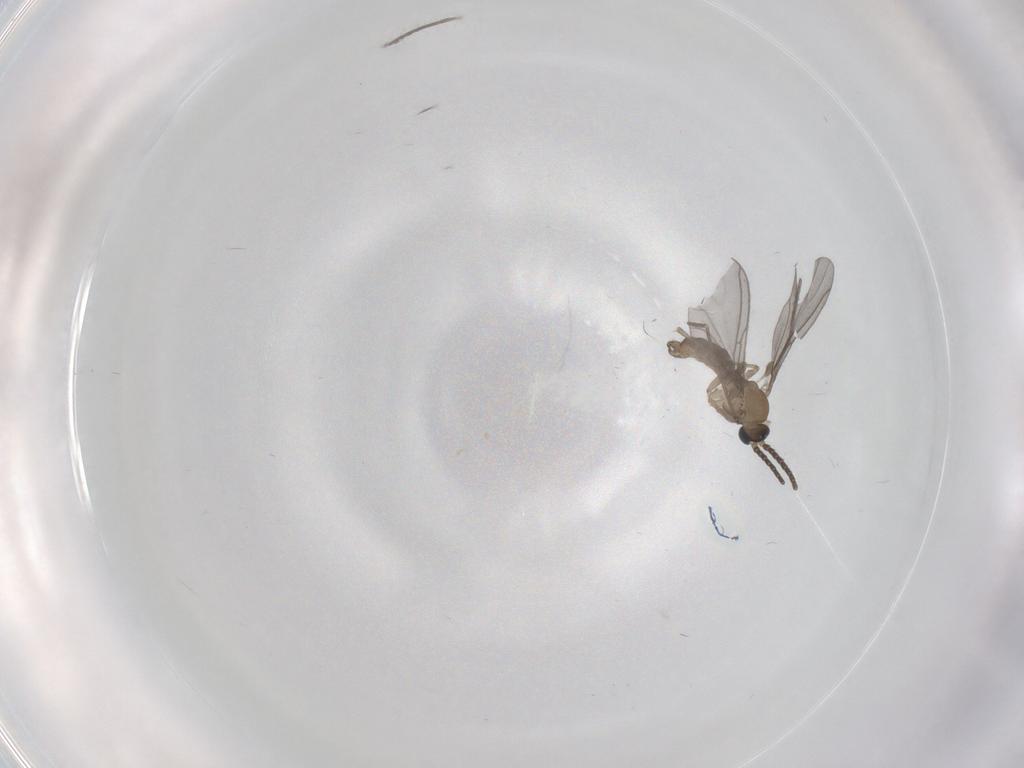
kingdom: Animalia
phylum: Arthropoda
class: Insecta
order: Diptera
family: Sciaridae
